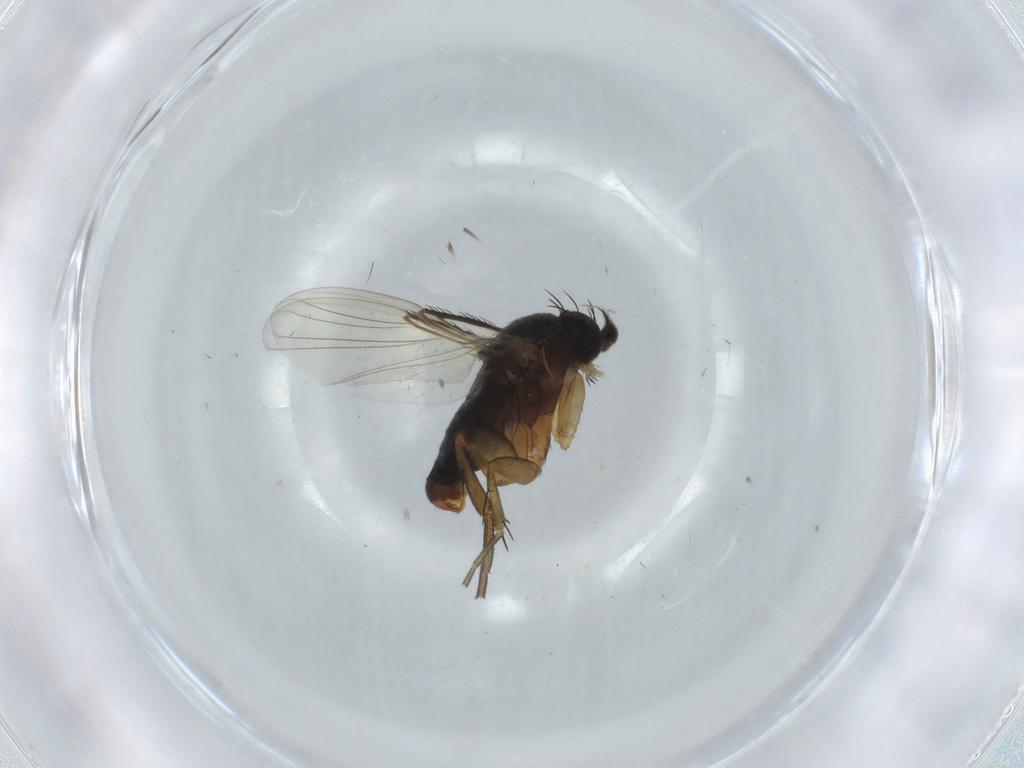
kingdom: Animalia
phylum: Arthropoda
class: Insecta
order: Diptera
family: Phoridae
